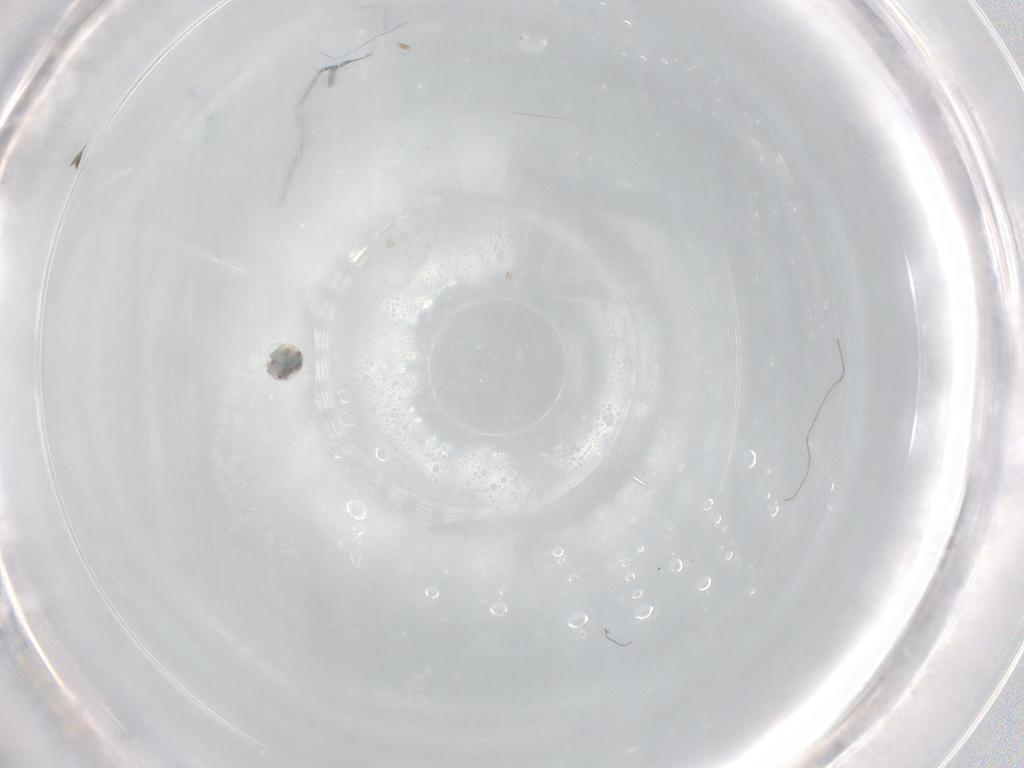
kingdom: Animalia
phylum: Arthropoda
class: Arachnida
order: Trombidiformes
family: Unionicolidae
